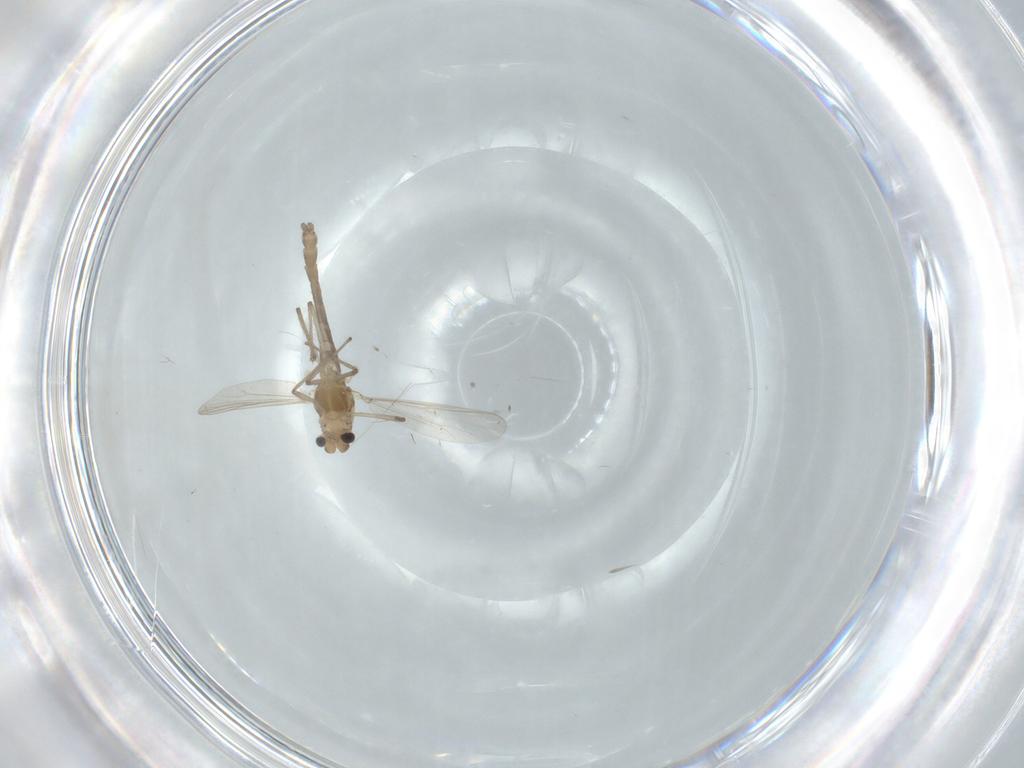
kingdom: Animalia
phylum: Arthropoda
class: Insecta
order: Diptera
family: Chironomidae
